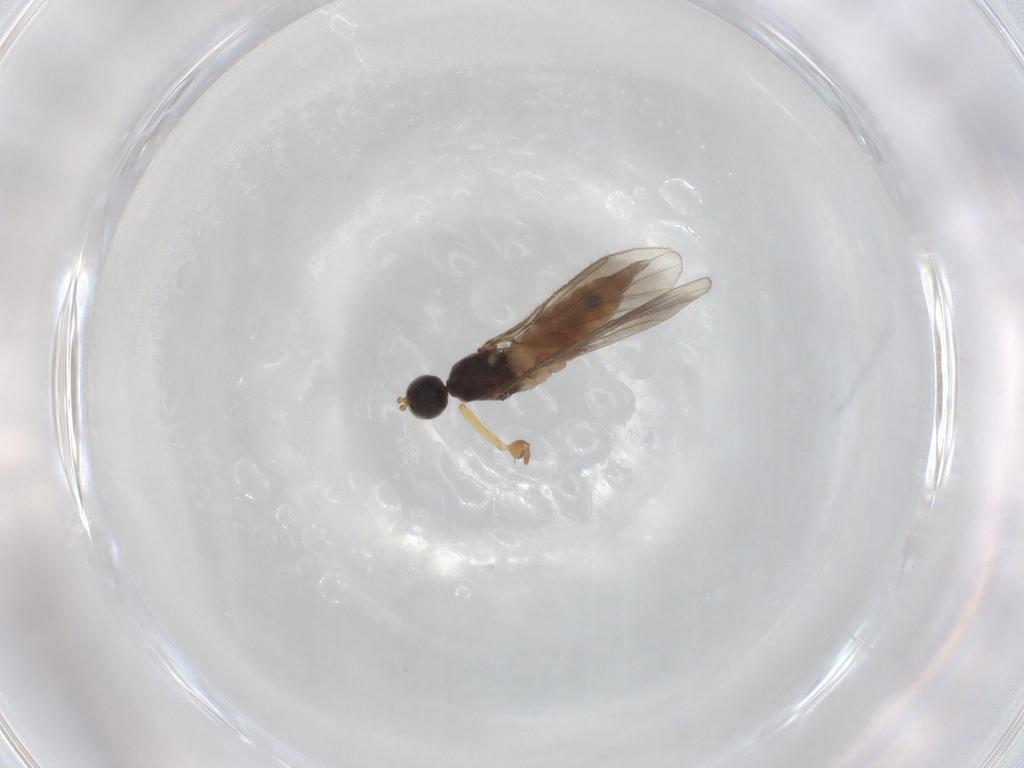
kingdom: Animalia
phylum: Arthropoda
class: Insecta
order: Diptera
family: Empididae
